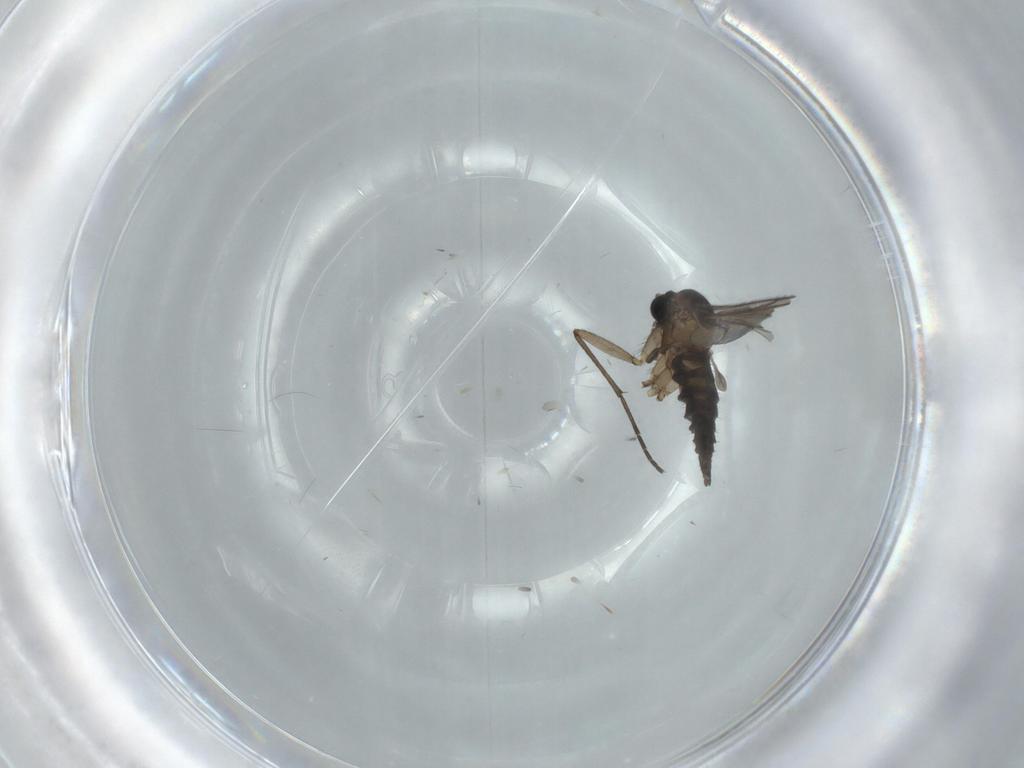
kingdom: Animalia
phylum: Arthropoda
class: Insecta
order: Diptera
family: Sciaridae
